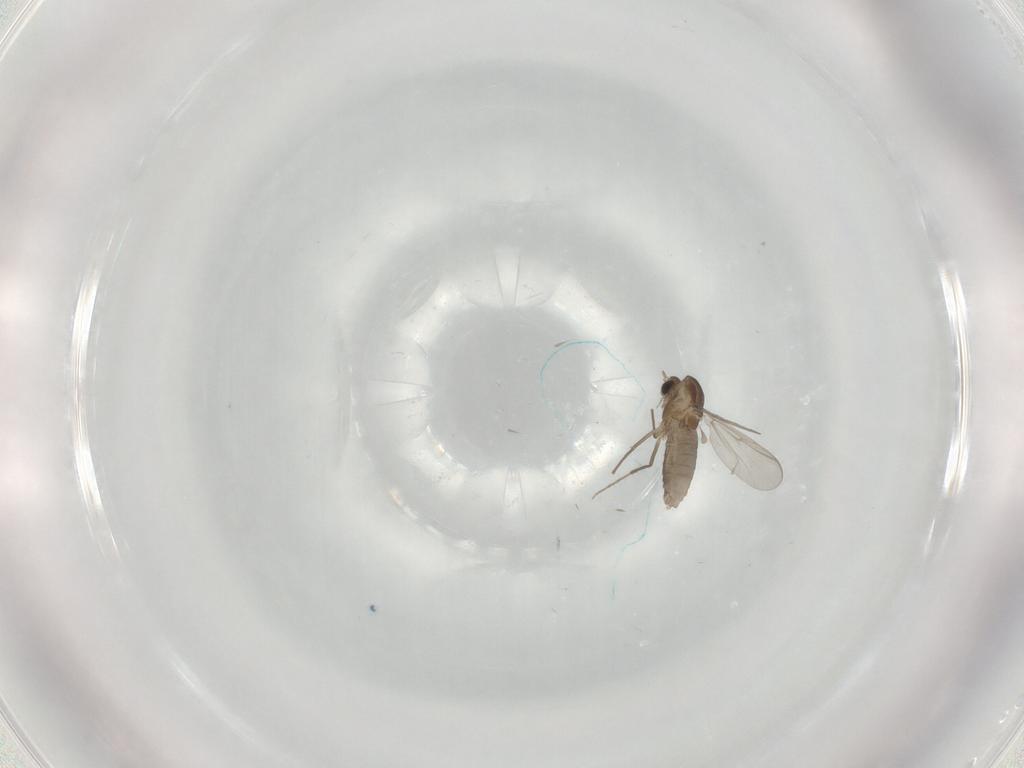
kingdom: Animalia
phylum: Arthropoda
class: Insecta
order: Diptera
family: Chironomidae
